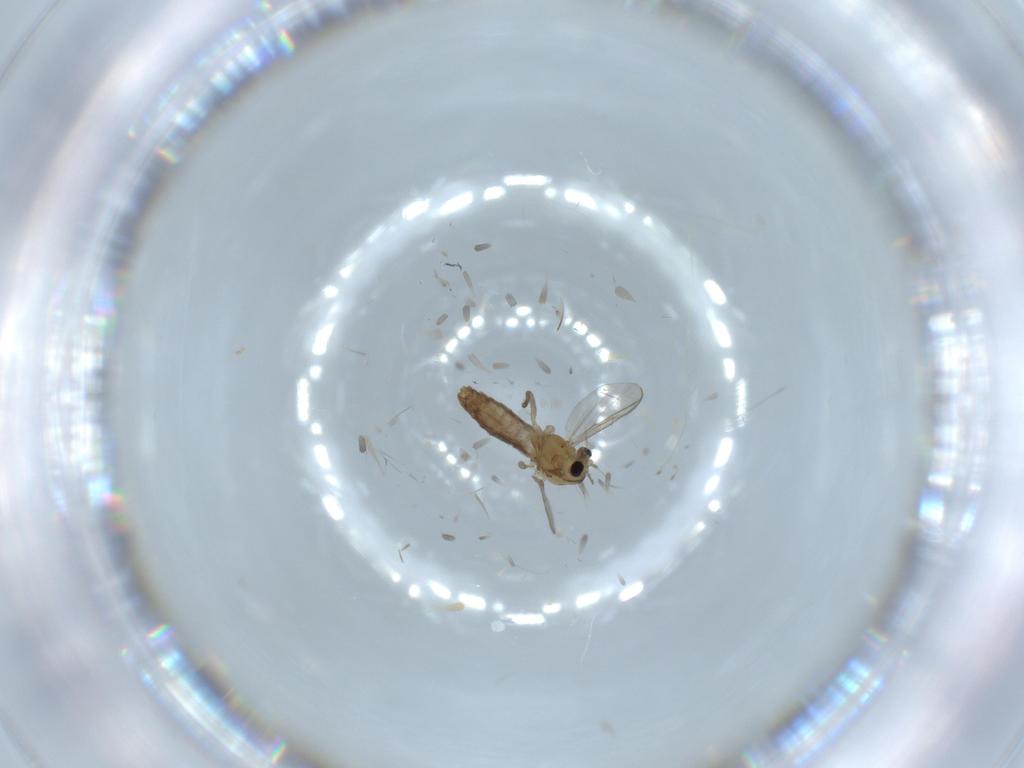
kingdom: Animalia
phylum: Arthropoda
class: Insecta
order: Diptera
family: Chironomidae
